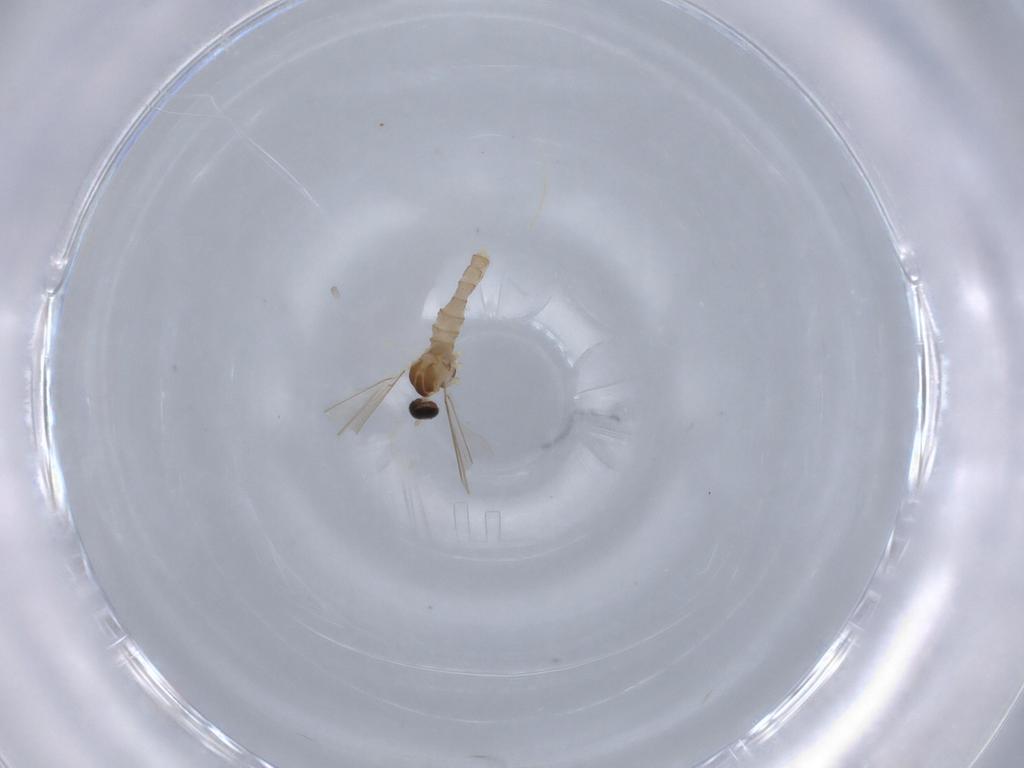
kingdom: Animalia
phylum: Arthropoda
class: Insecta
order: Diptera
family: Cecidomyiidae
